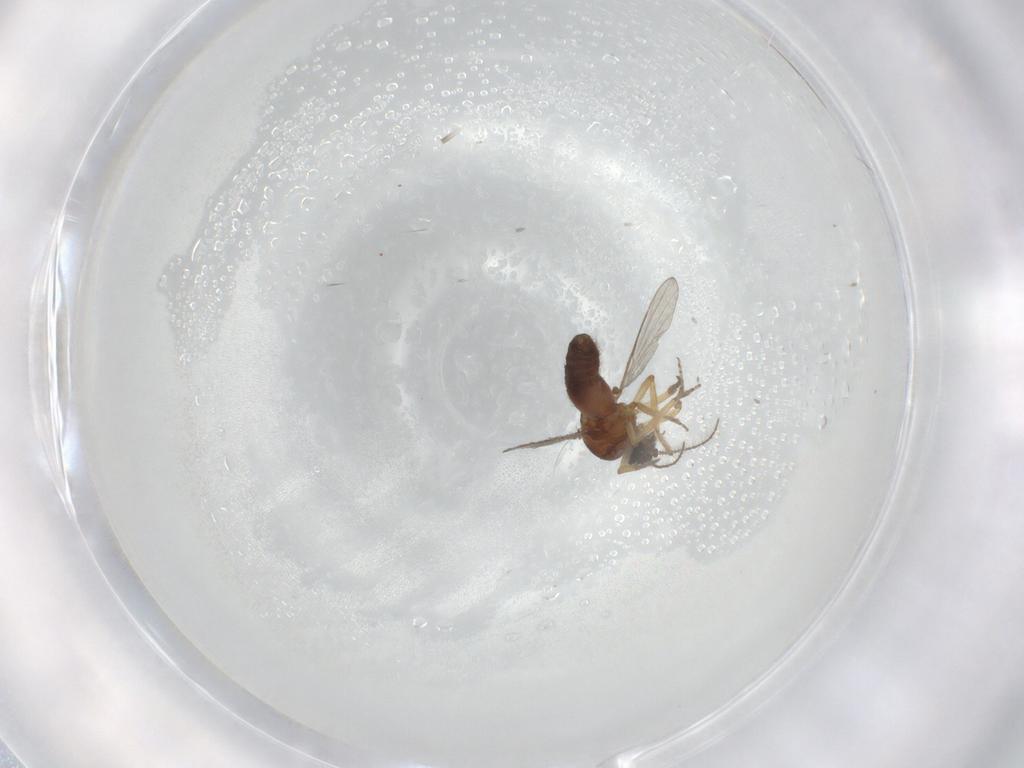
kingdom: Animalia
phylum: Arthropoda
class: Insecta
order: Diptera
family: Ceratopogonidae
